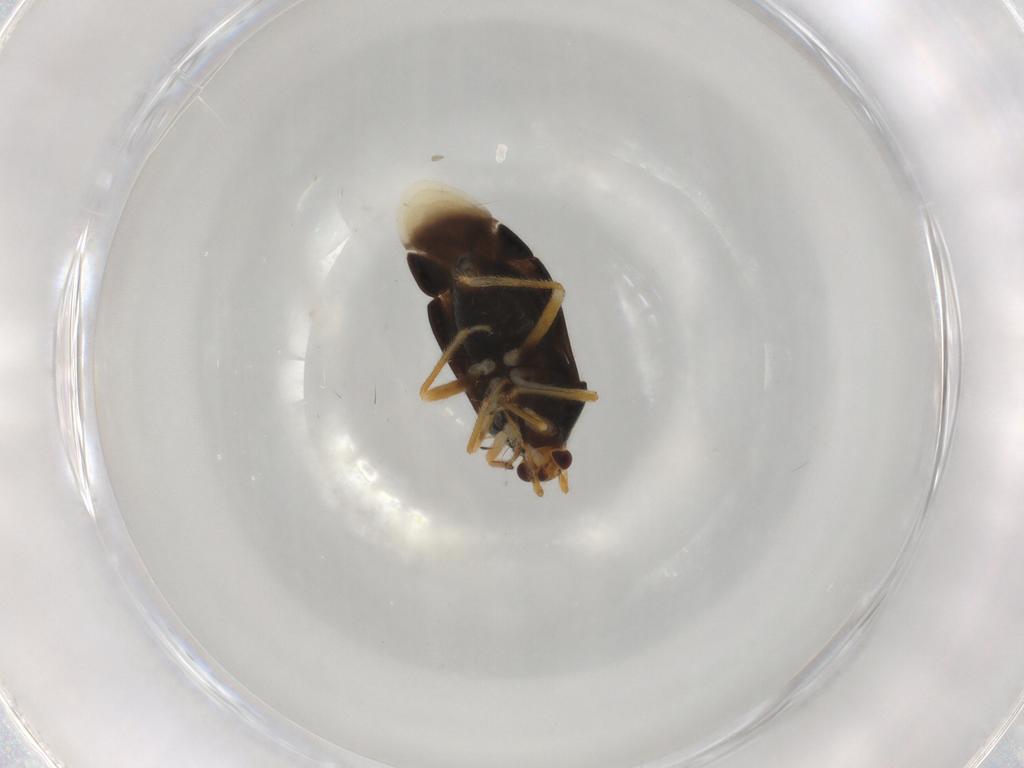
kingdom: Animalia
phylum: Arthropoda
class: Insecta
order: Hemiptera
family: Miridae
